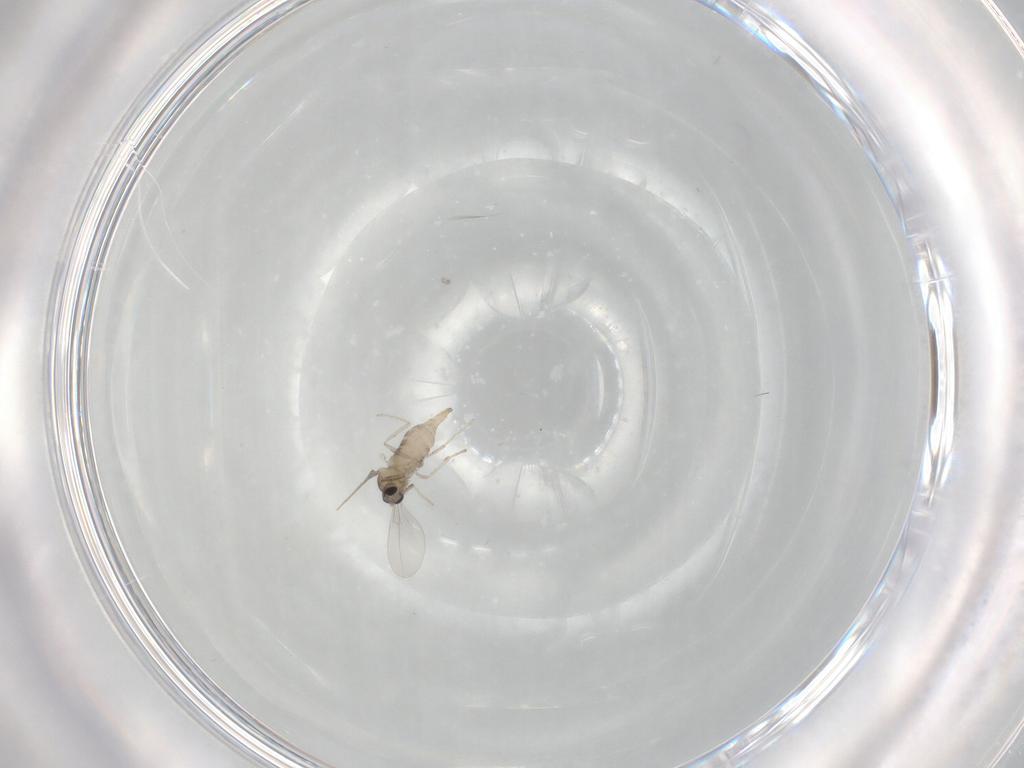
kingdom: Animalia
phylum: Arthropoda
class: Insecta
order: Diptera
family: Cecidomyiidae
